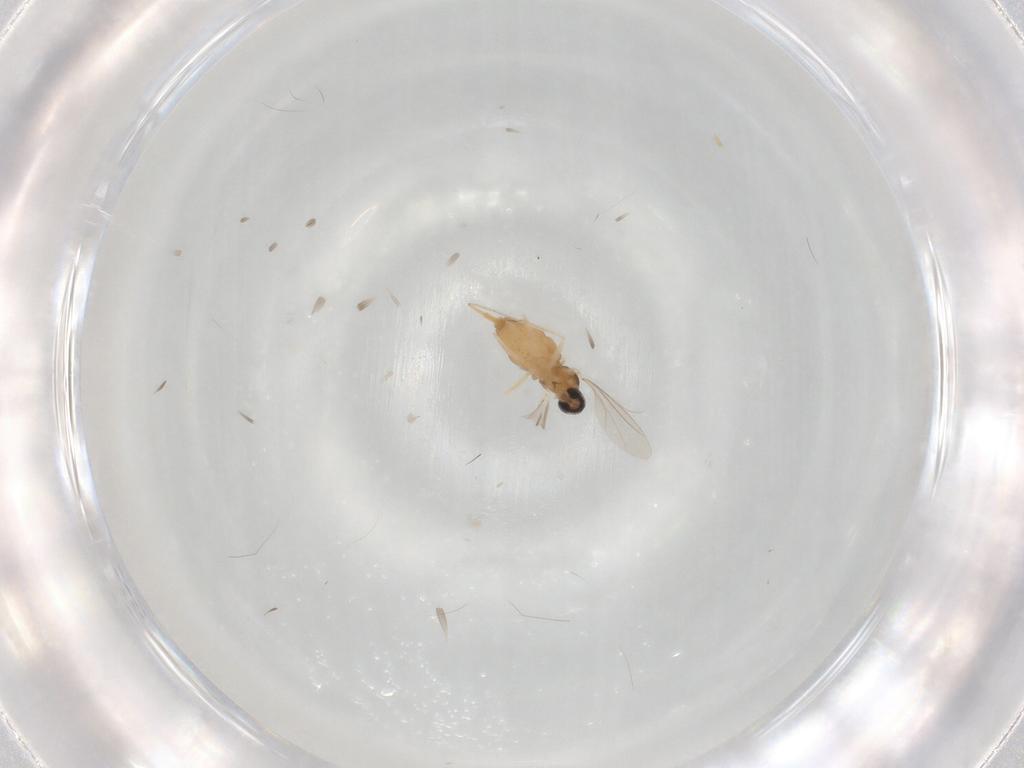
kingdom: Animalia
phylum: Arthropoda
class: Insecta
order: Diptera
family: Cecidomyiidae
